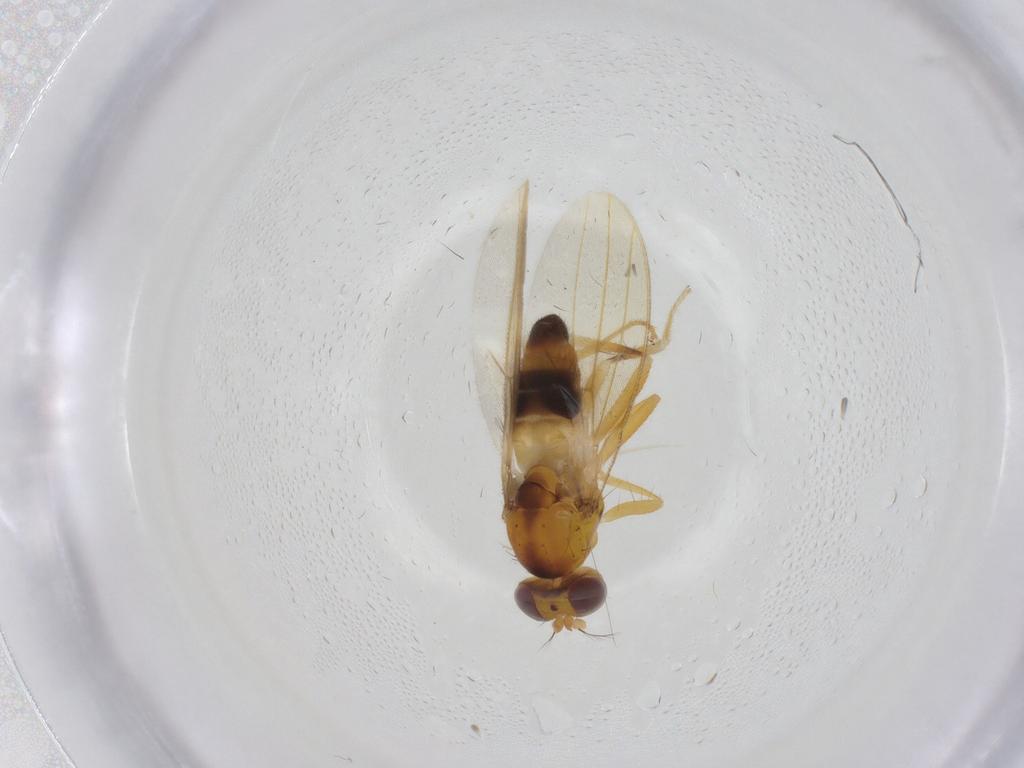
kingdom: Animalia
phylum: Arthropoda
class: Insecta
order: Diptera
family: Periscelididae
